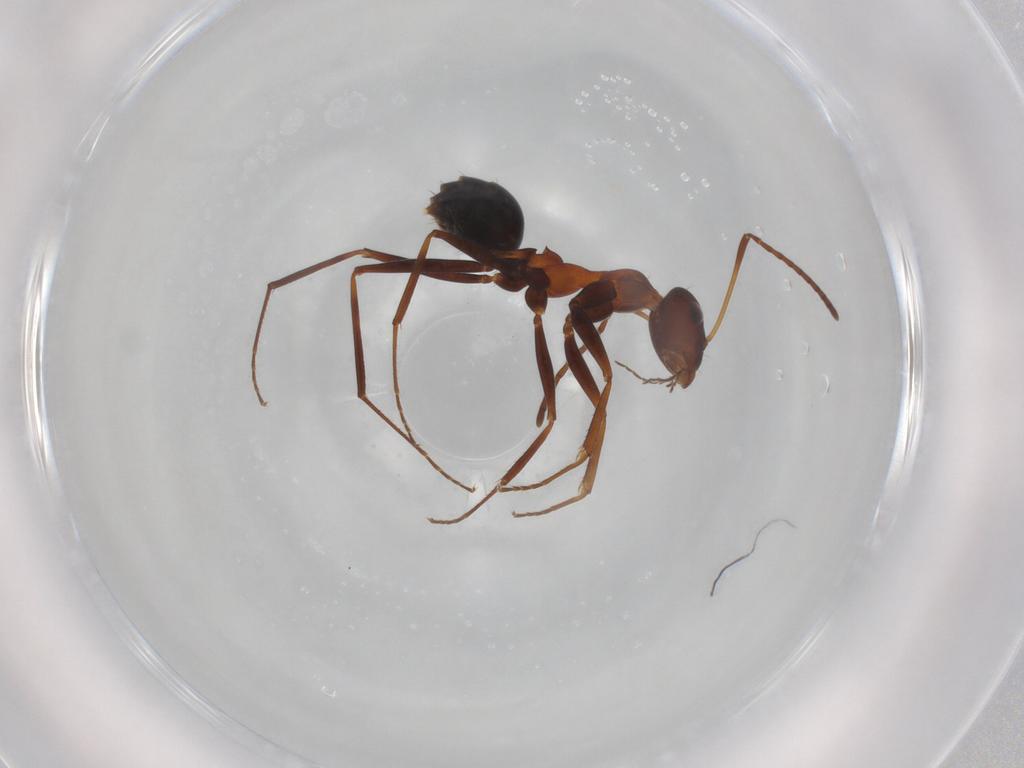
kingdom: Animalia
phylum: Arthropoda
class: Insecta
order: Hymenoptera
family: Formicidae
